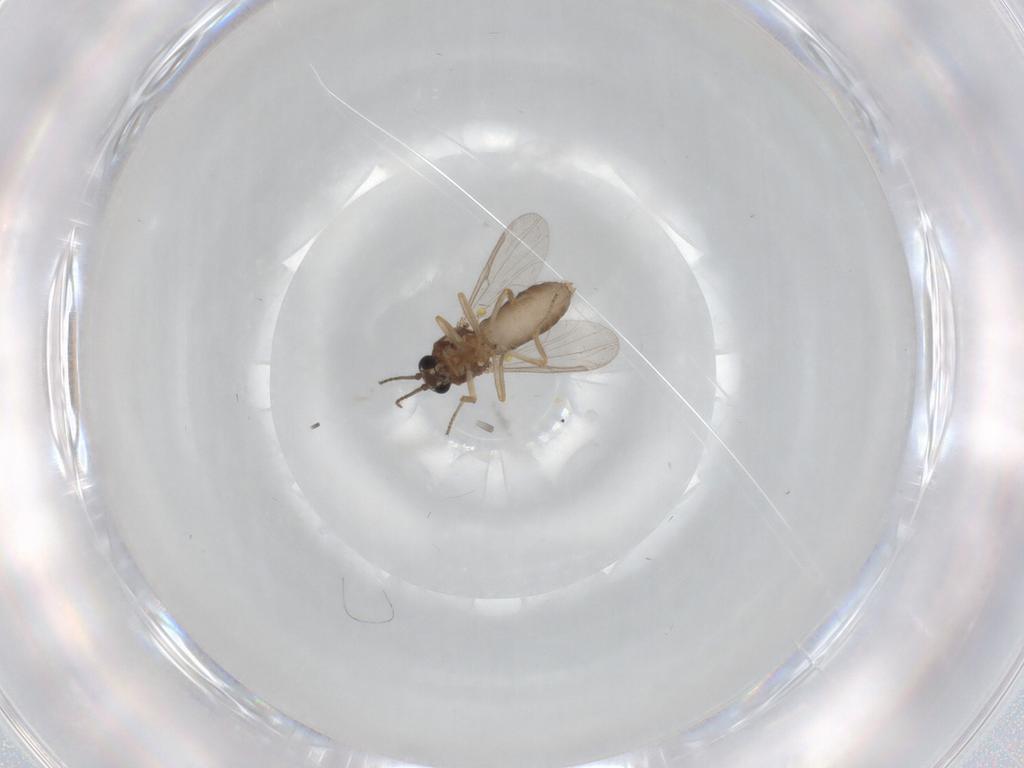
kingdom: Animalia
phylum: Arthropoda
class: Insecta
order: Diptera
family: Ceratopogonidae
